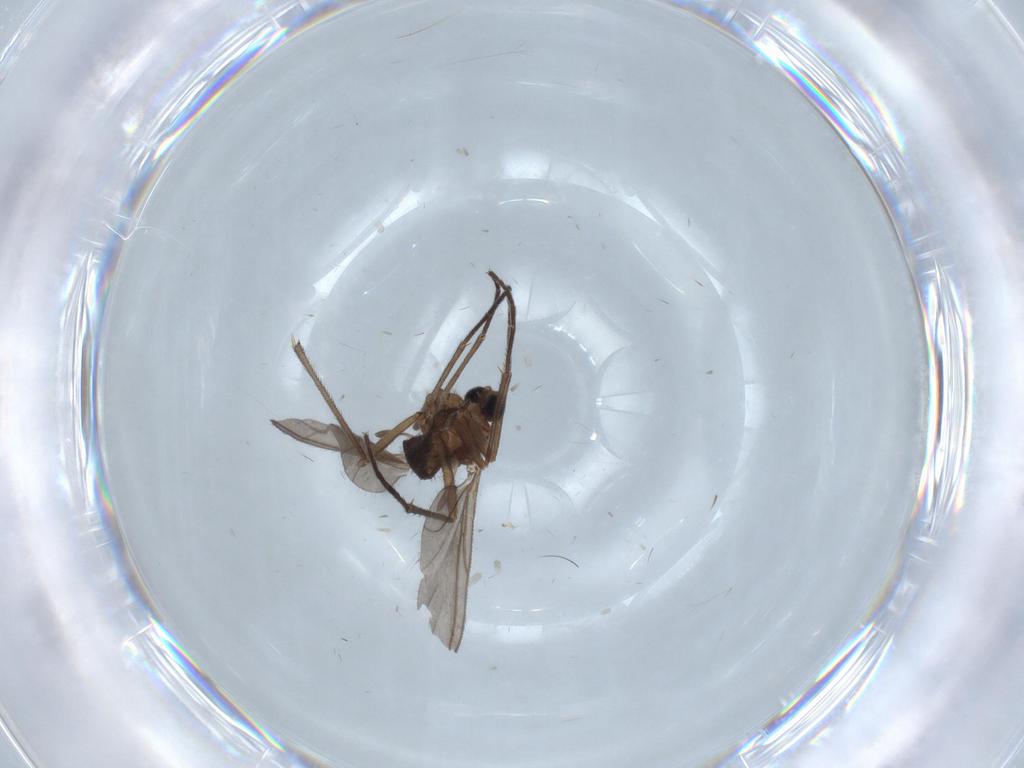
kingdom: Animalia
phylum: Arthropoda
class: Insecta
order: Diptera
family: Limoniidae
